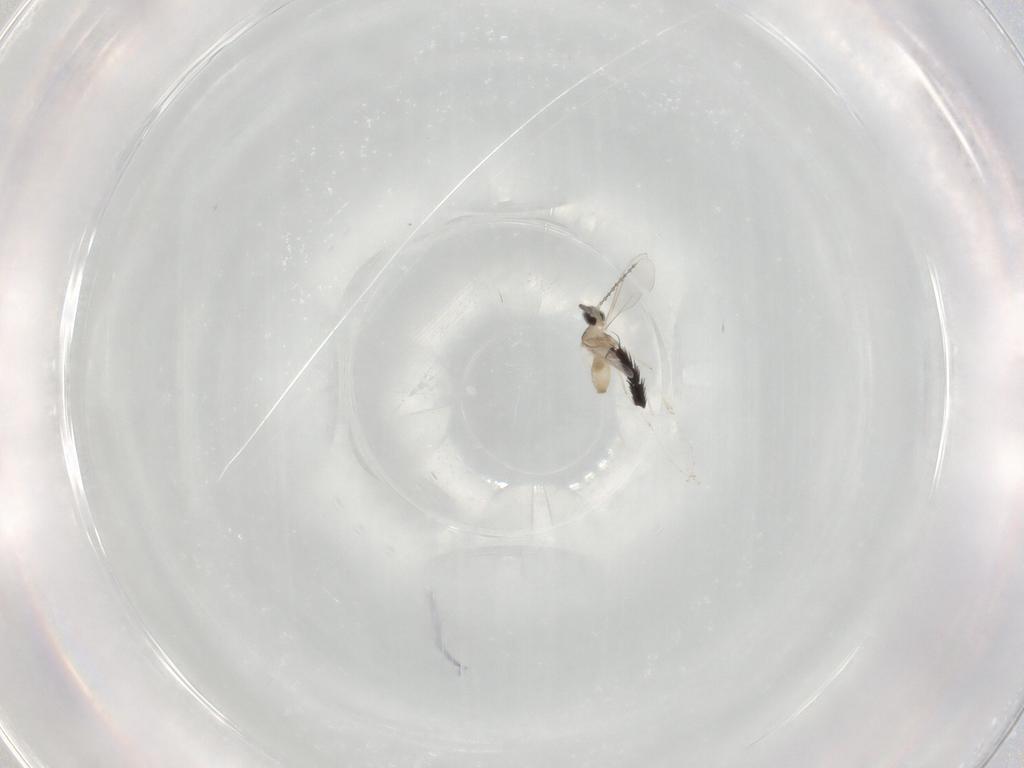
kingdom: Animalia
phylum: Arthropoda
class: Insecta
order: Diptera
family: Cecidomyiidae
